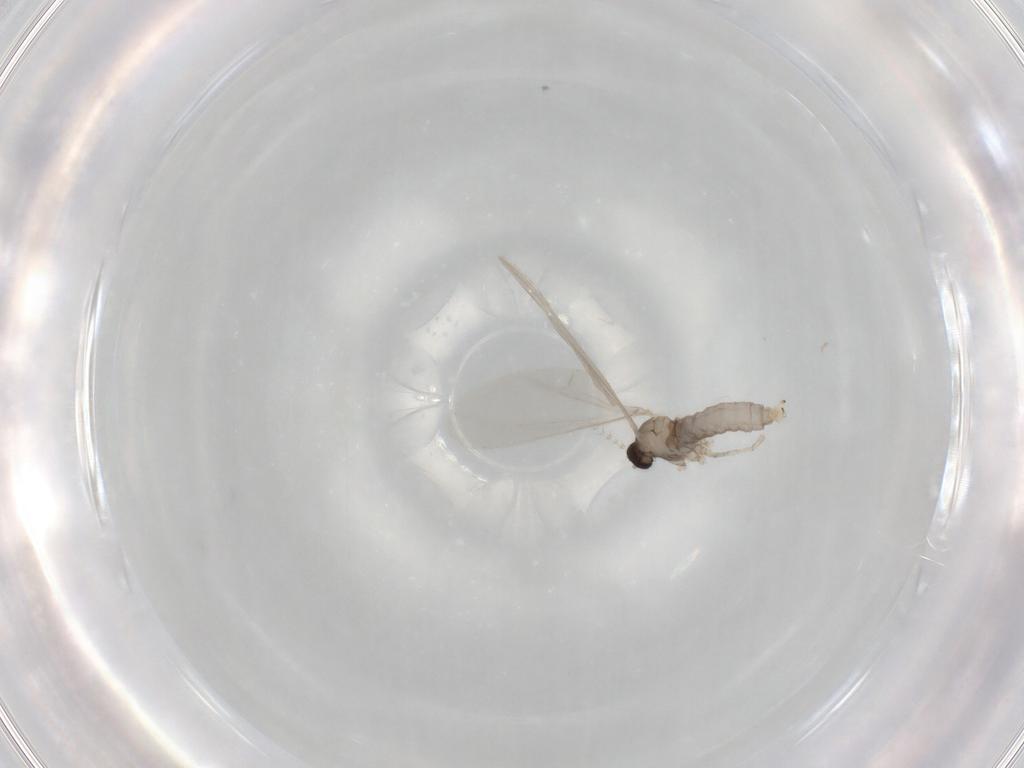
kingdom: Animalia
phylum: Arthropoda
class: Insecta
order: Diptera
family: Cecidomyiidae
